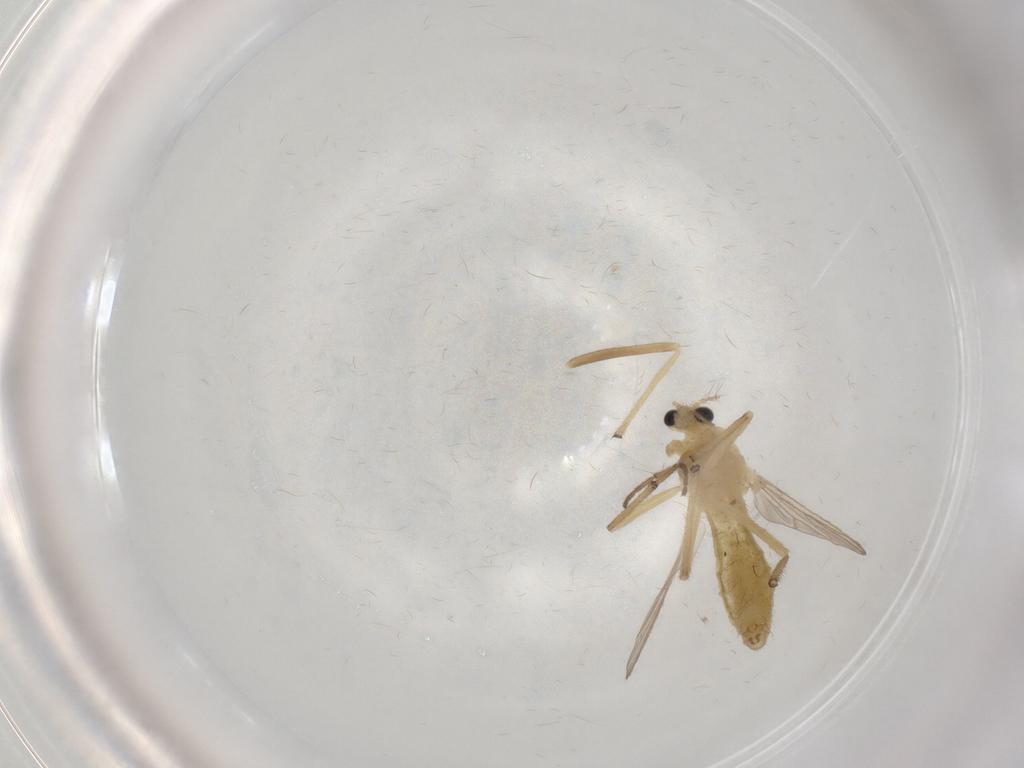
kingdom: Animalia
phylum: Arthropoda
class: Insecta
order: Diptera
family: Chironomidae
